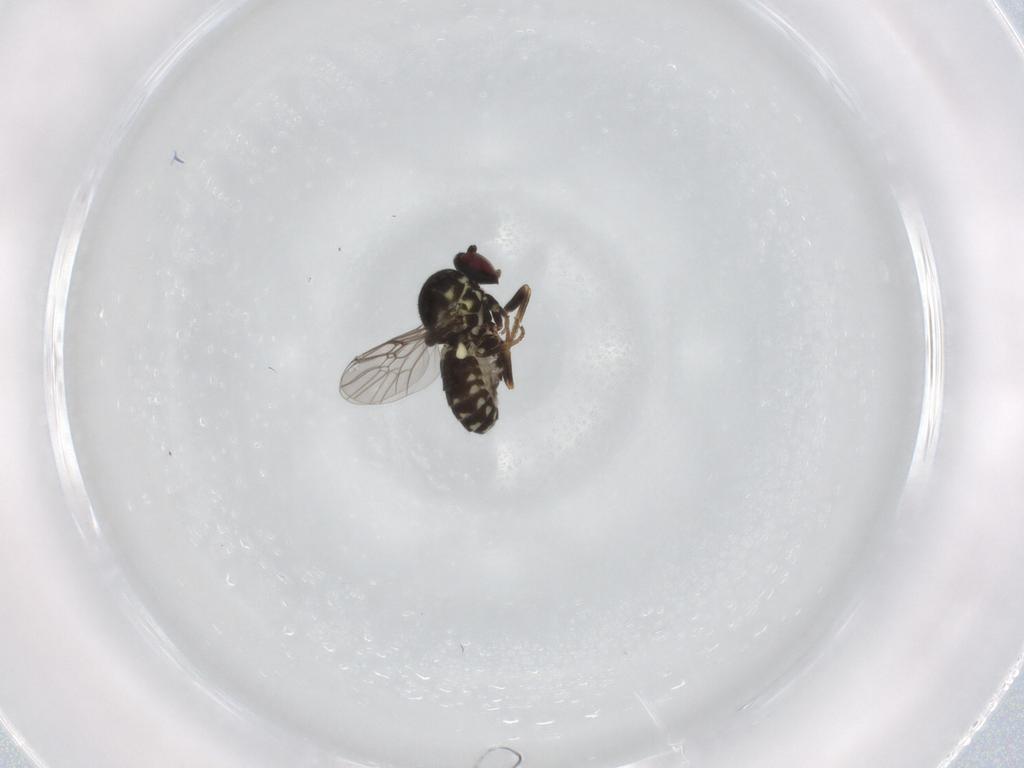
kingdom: Animalia
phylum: Arthropoda
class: Insecta
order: Diptera
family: Bombyliidae
